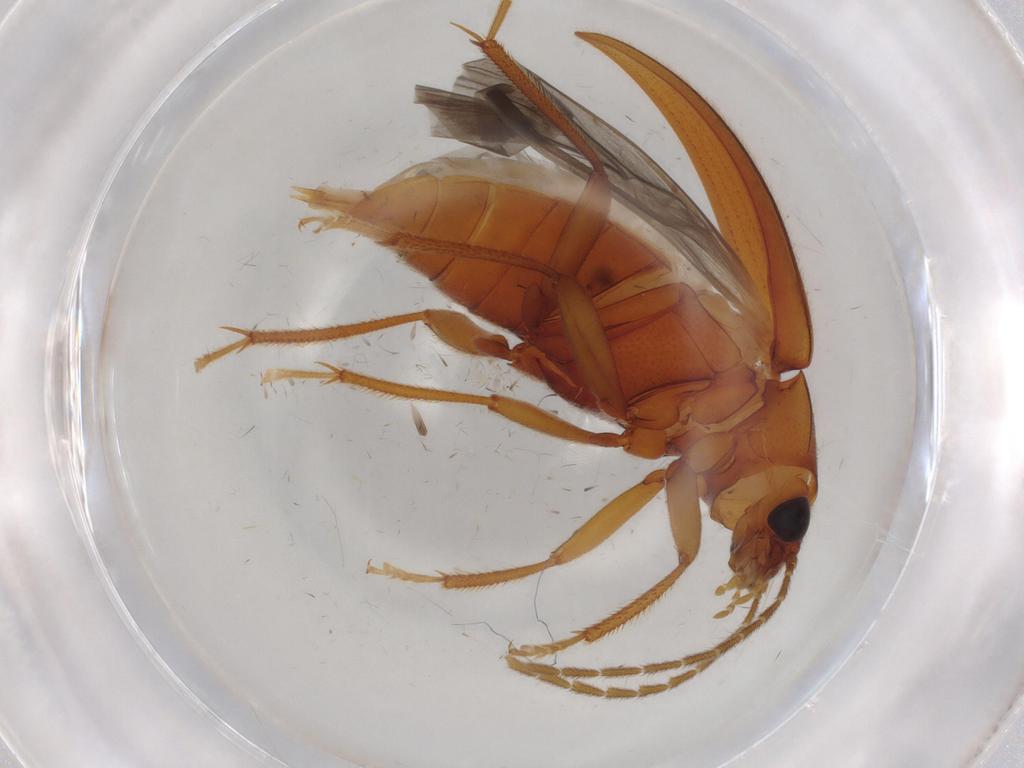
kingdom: Animalia
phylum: Arthropoda
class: Insecta
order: Coleoptera
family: Ptilodactylidae
